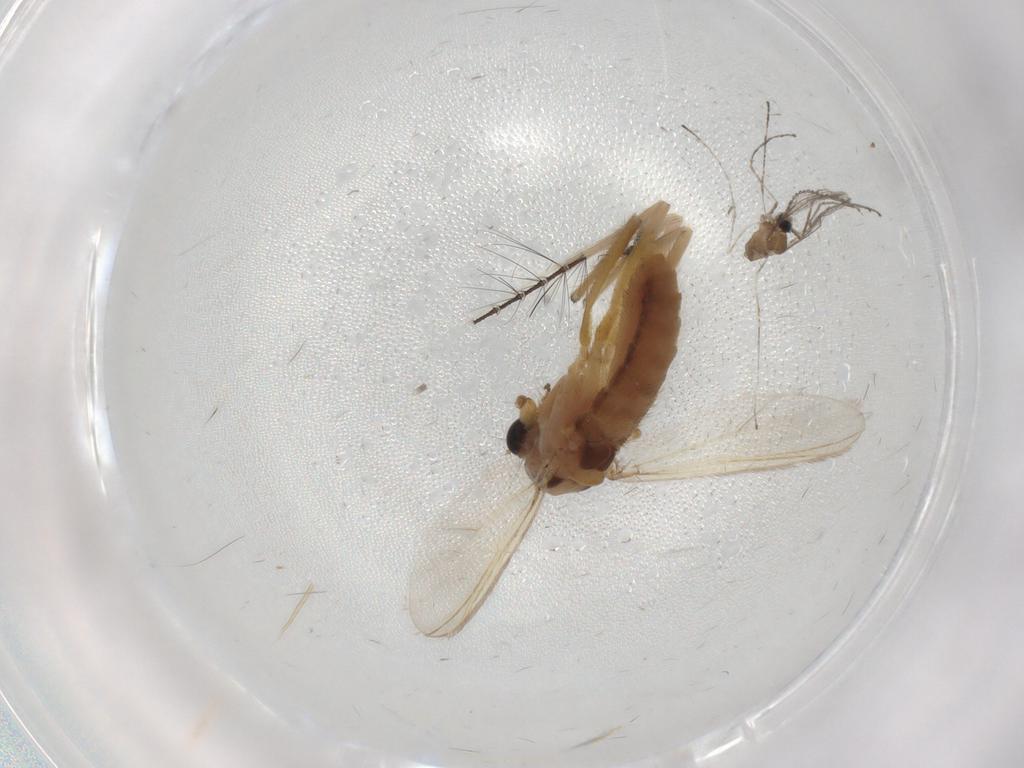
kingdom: Animalia
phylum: Arthropoda
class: Insecta
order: Diptera
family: Chironomidae
